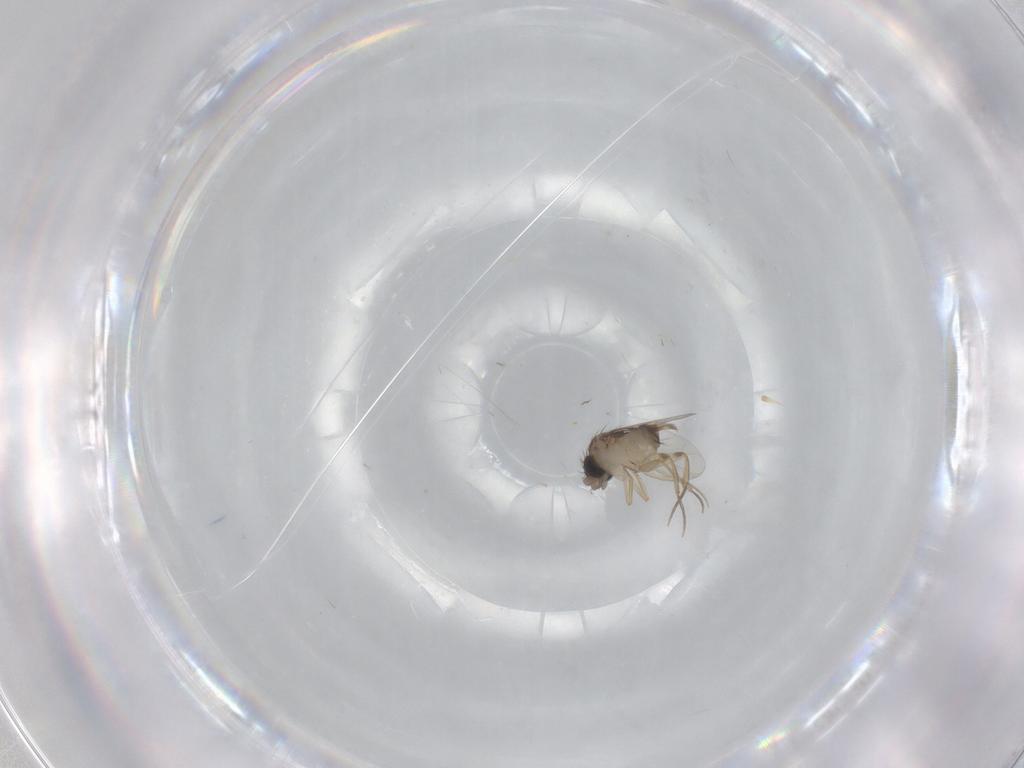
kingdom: Animalia
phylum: Arthropoda
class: Insecta
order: Diptera
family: Phoridae
